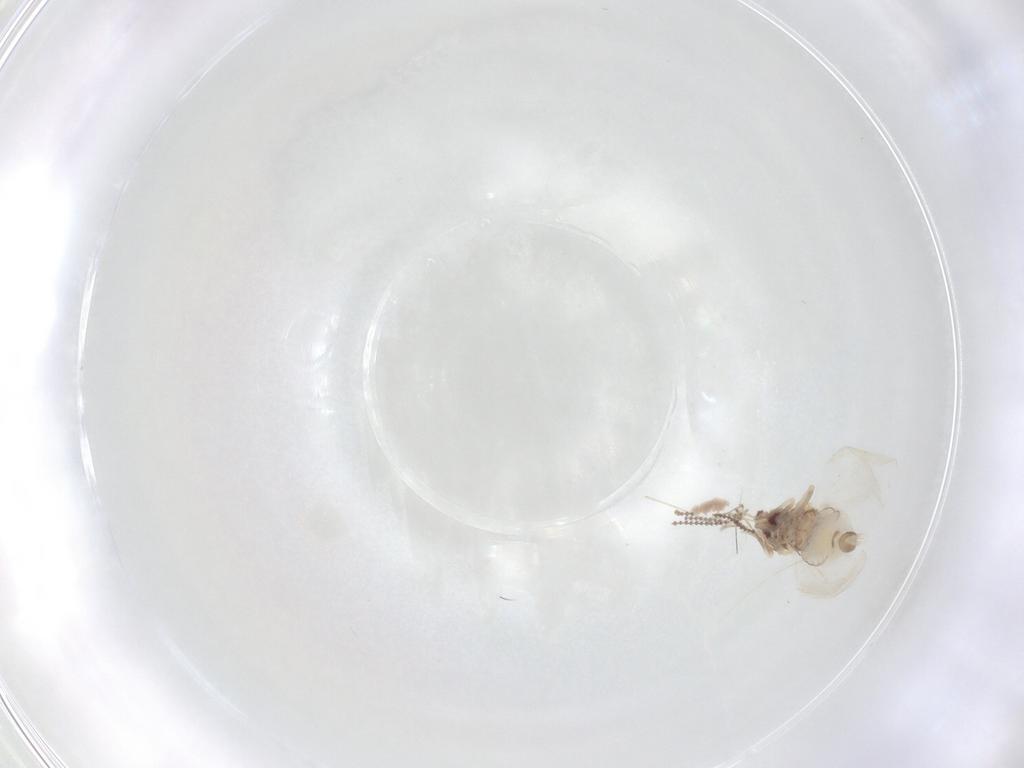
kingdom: Animalia
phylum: Arthropoda
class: Insecta
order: Hemiptera
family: Aleyrodidae
